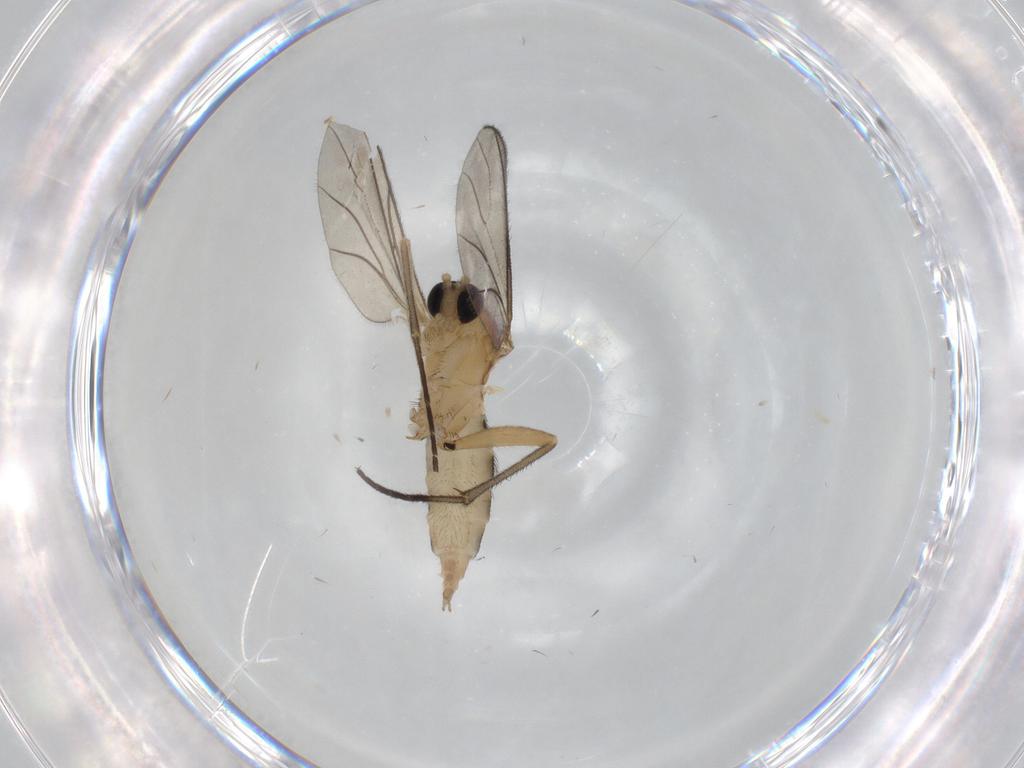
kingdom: Animalia
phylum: Arthropoda
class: Insecta
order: Diptera
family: Sciaridae
